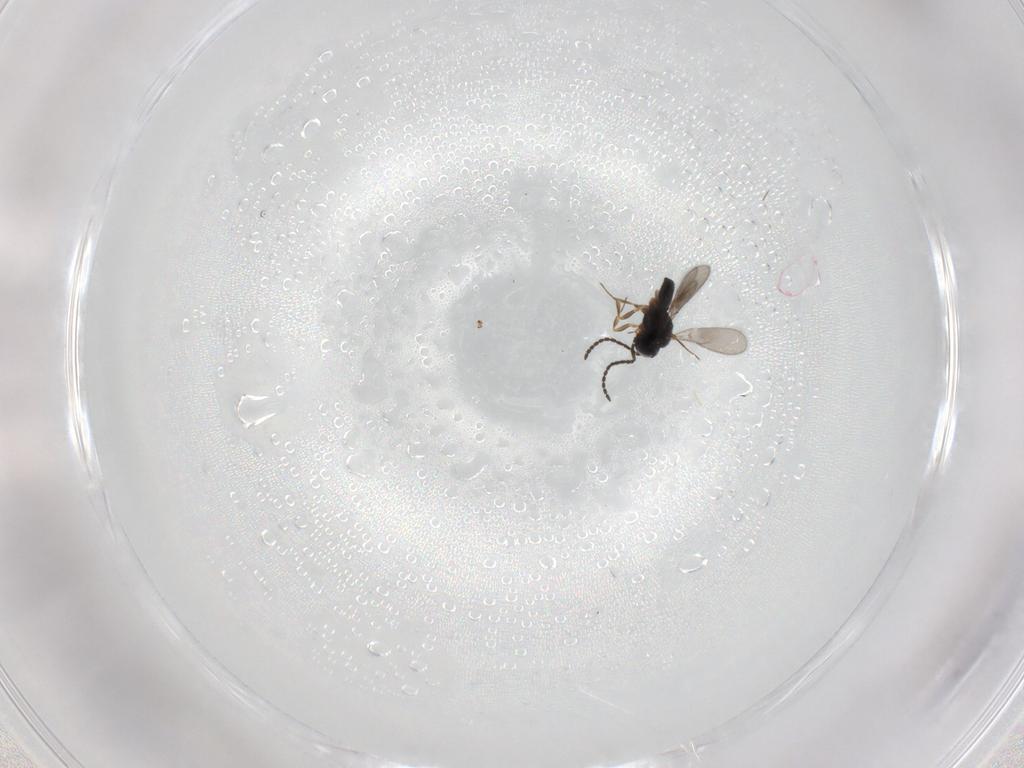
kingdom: Animalia
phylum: Arthropoda
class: Insecta
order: Hymenoptera
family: Scelionidae
